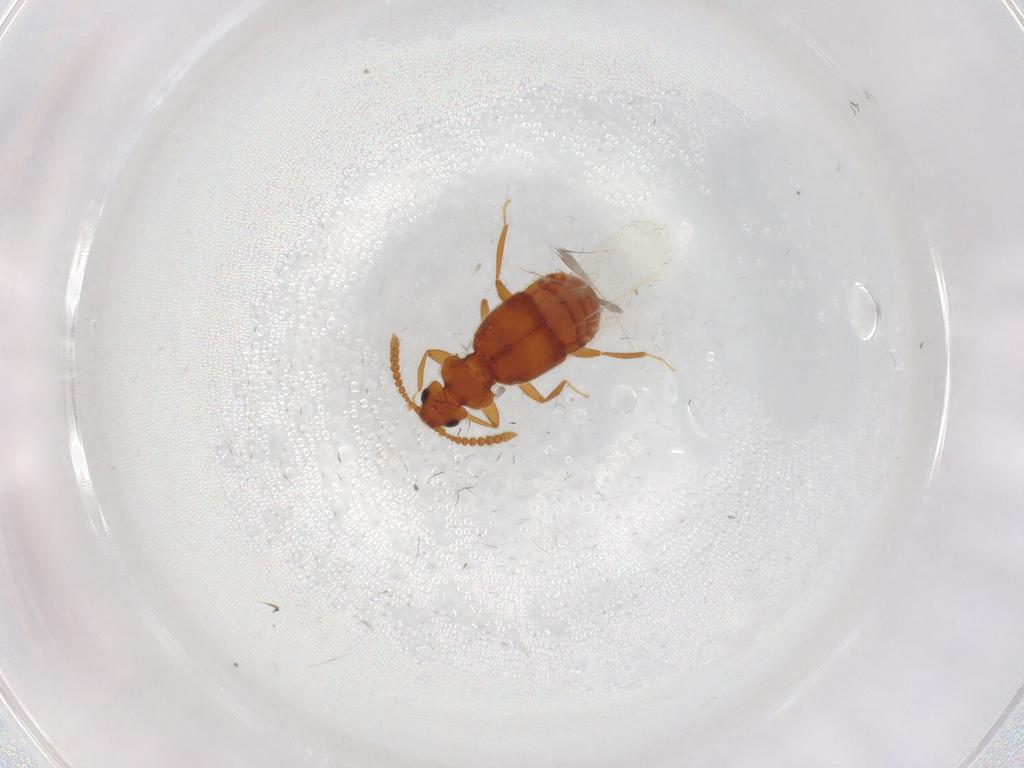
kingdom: Animalia
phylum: Arthropoda
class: Insecta
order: Coleoptera
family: Staphylinidae
